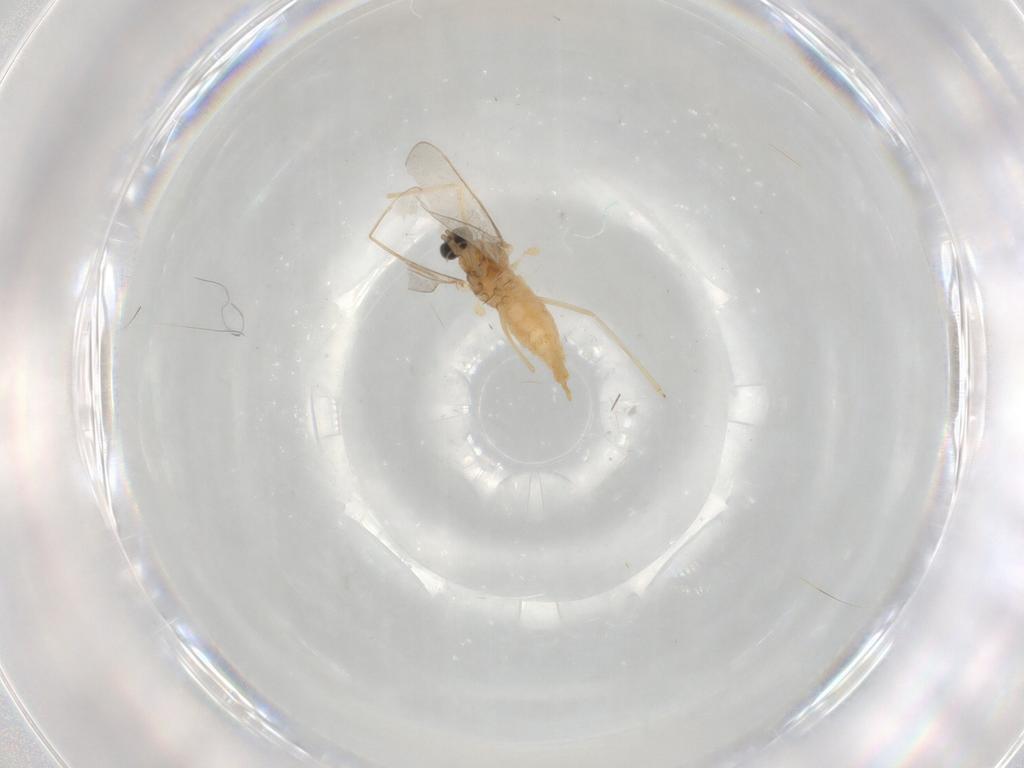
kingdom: Animalia
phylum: Arthropoda
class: Insecta
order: Diptera
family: Cecidomyiidae
